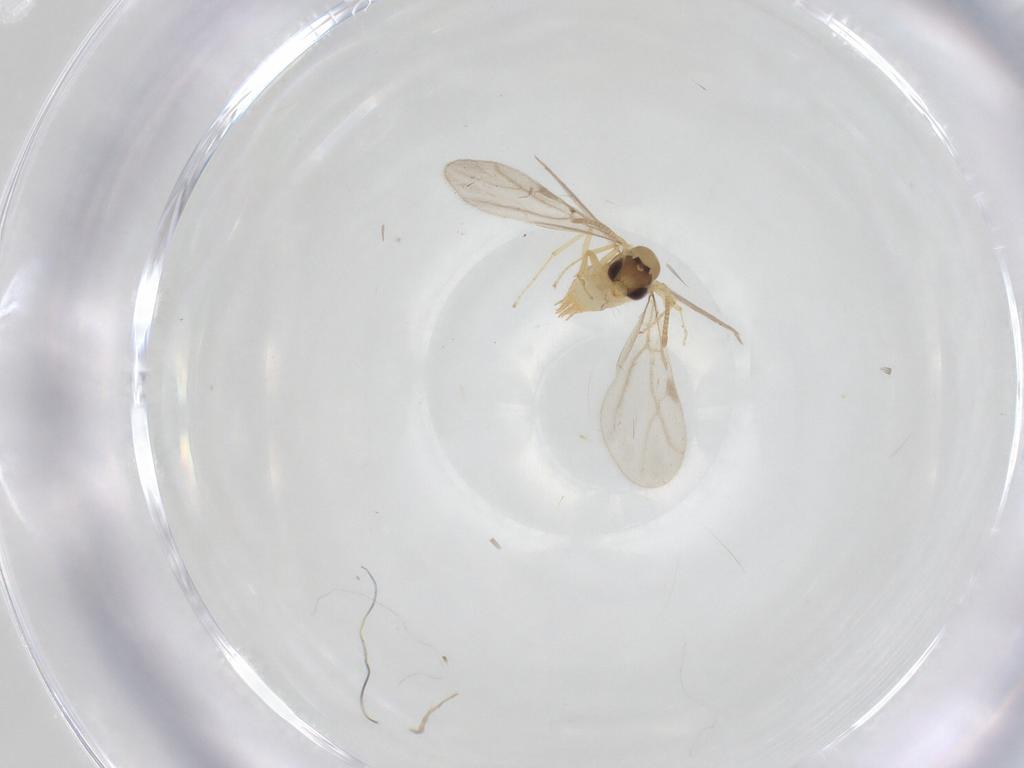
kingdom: Animalia
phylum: Arthropoda
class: Insecta
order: Hymenoptera
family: Formicidae
